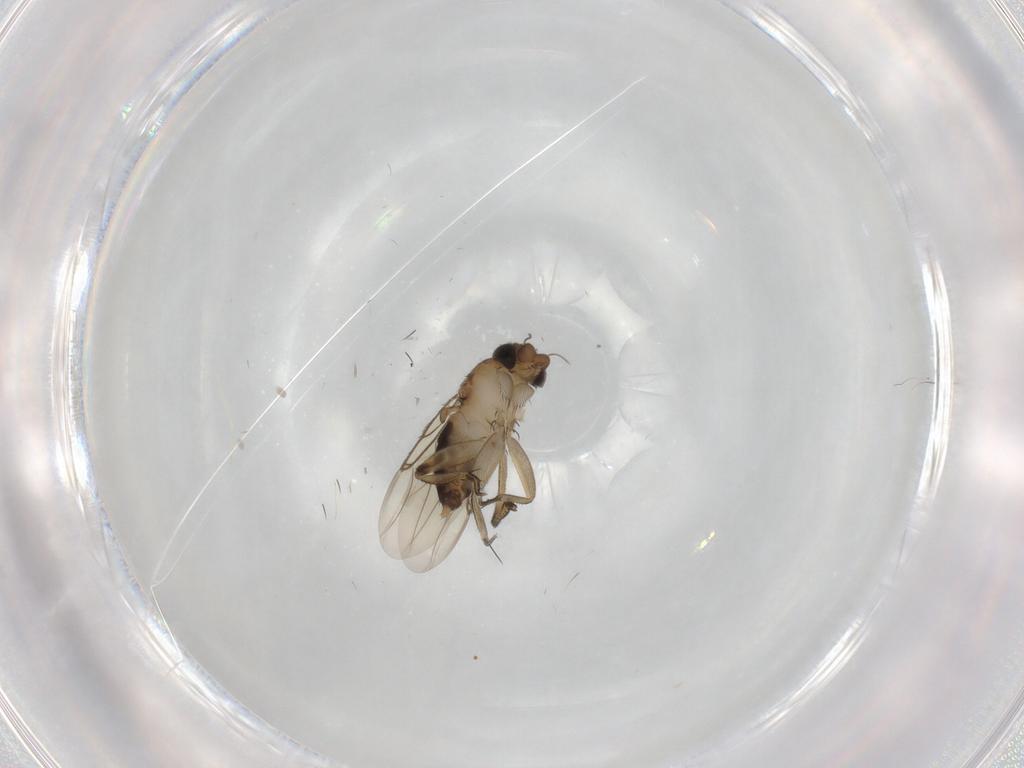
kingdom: Animalia
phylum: Arthropoda
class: Insecta
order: Diptera
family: Phoridae
